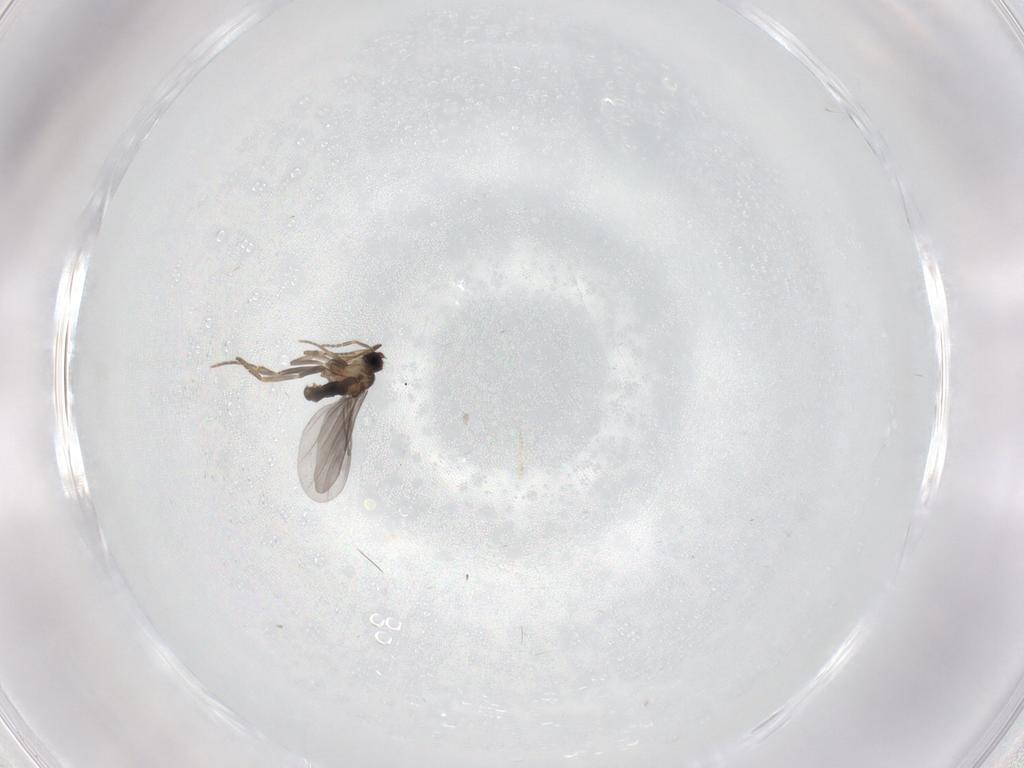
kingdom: Animalia
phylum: Arthropoda
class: Insecta
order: Diptera
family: Cecidomyiidae
